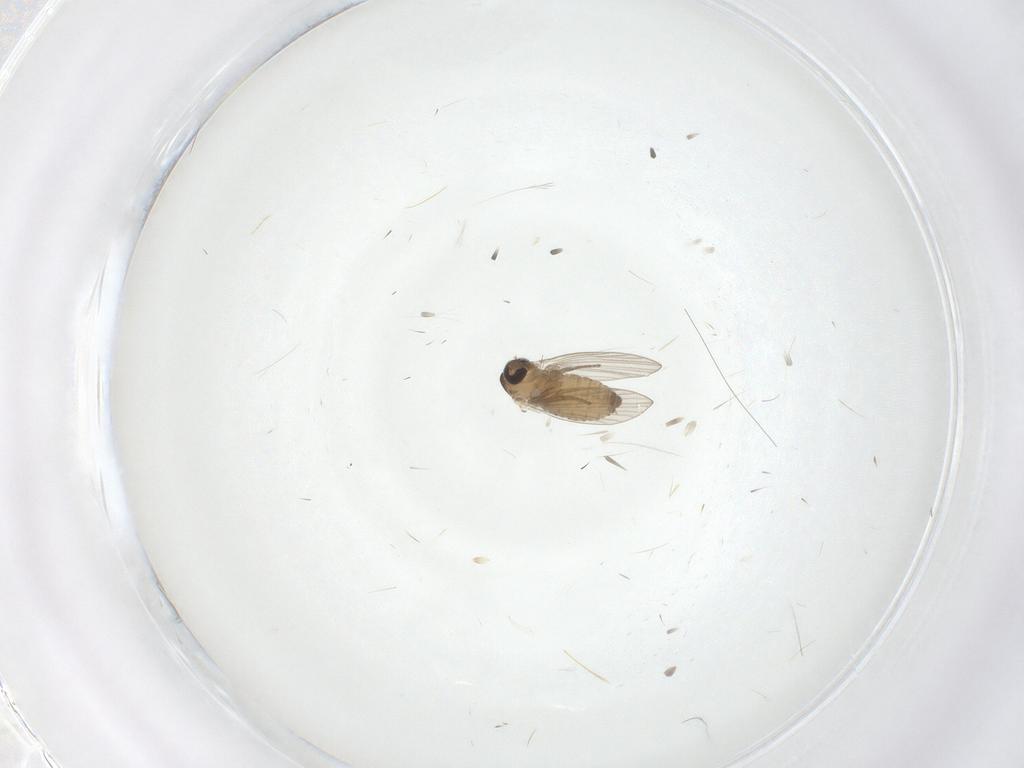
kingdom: Animalia
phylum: Arthropoda
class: Insecta
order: Diptera
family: Psychodidae
